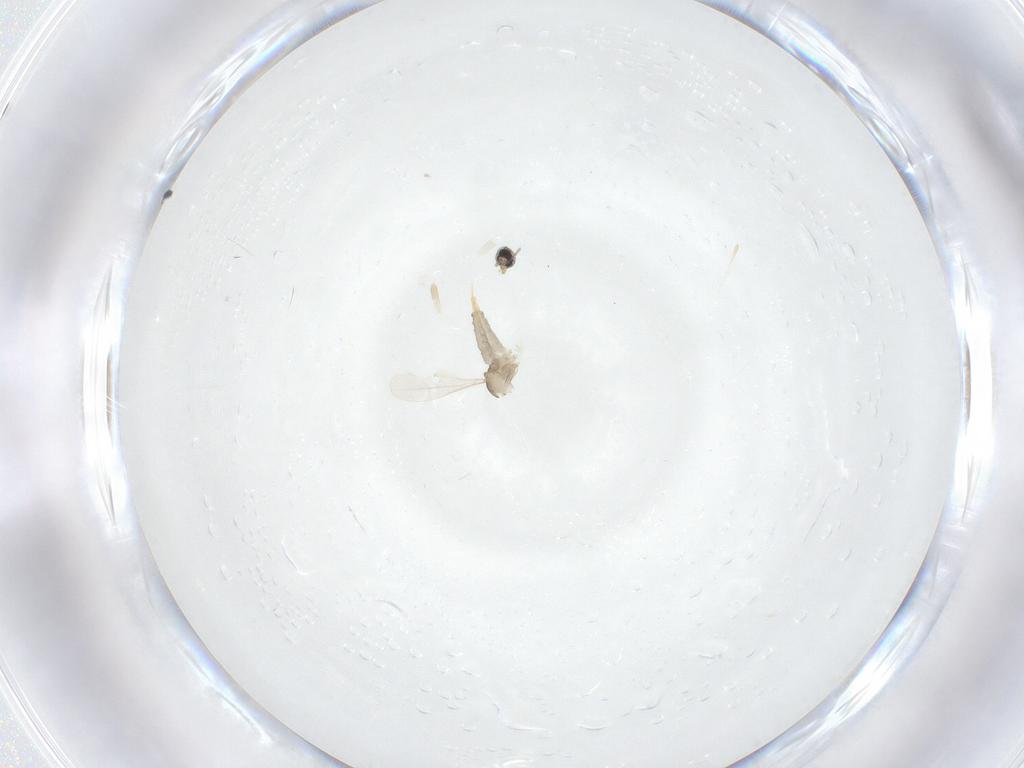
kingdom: Animalia
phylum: Arthropoda
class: Insecta
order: Diptera
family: Cecidomyiidae
